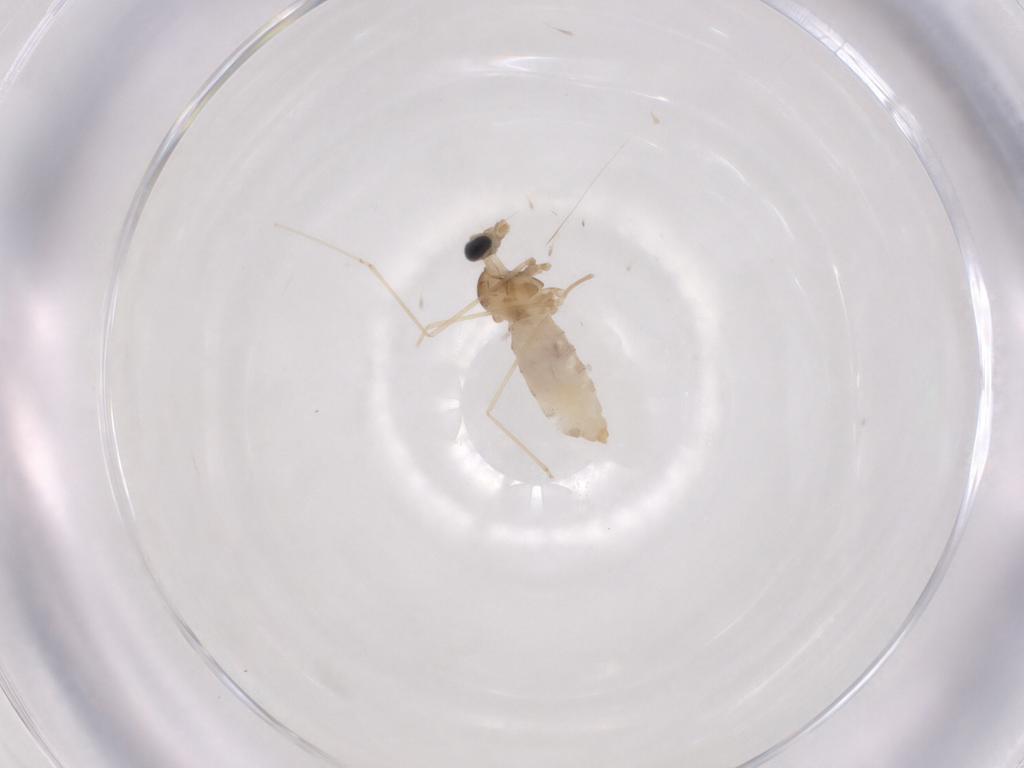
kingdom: Animalia
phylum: Arthropoda
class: Insecta
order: Diptera
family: Cecidomyiidae
